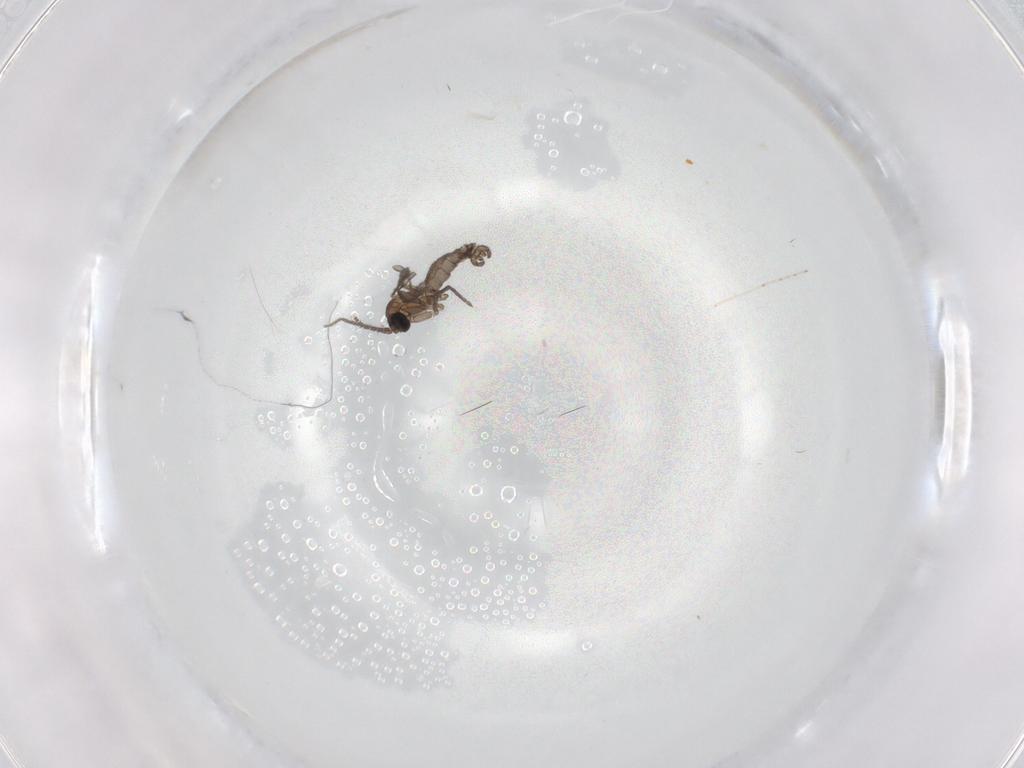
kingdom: Animalia
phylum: Arthropoda
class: Insecta
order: Diptera
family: Sciaridae
